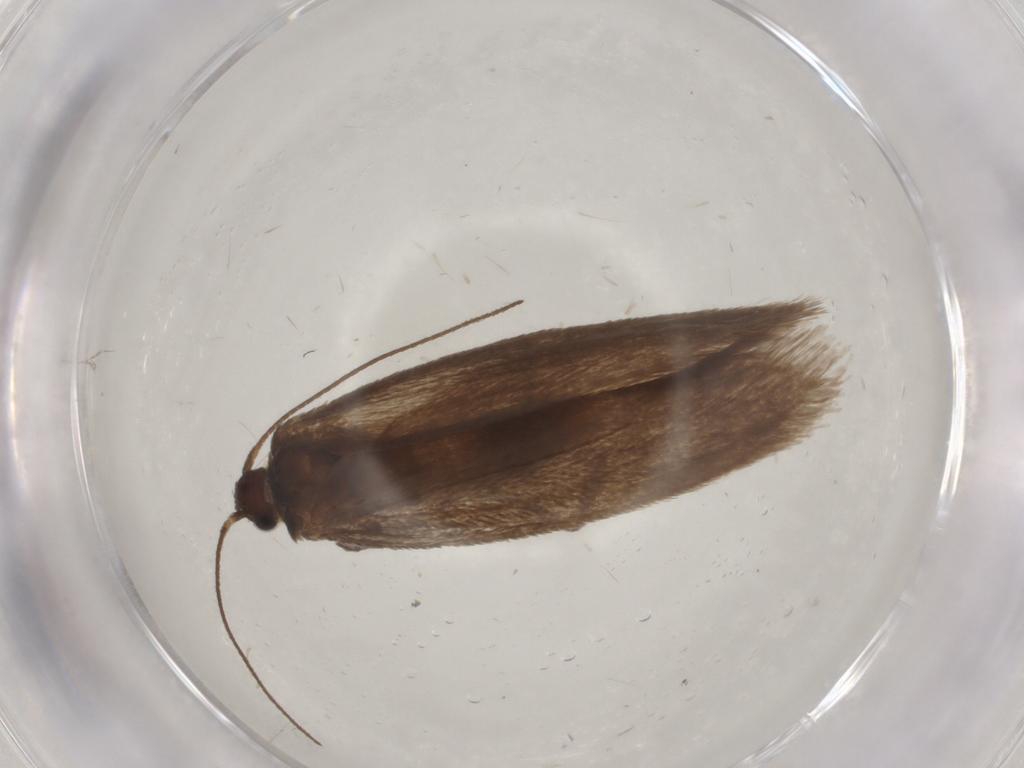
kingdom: Animalia
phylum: Arthropoda
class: Insecta
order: Lepidoptera
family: Limacodidae
